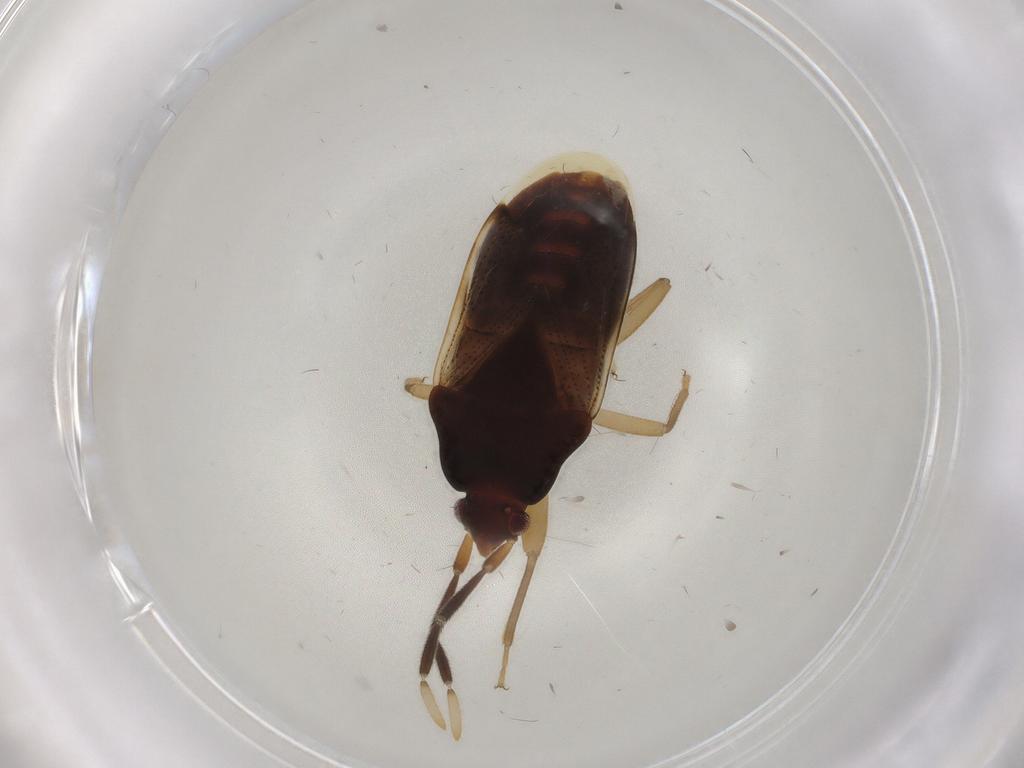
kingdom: Animalia
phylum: Arthropoda
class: Insecta
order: Hemiptera
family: Rhyparochromidae
